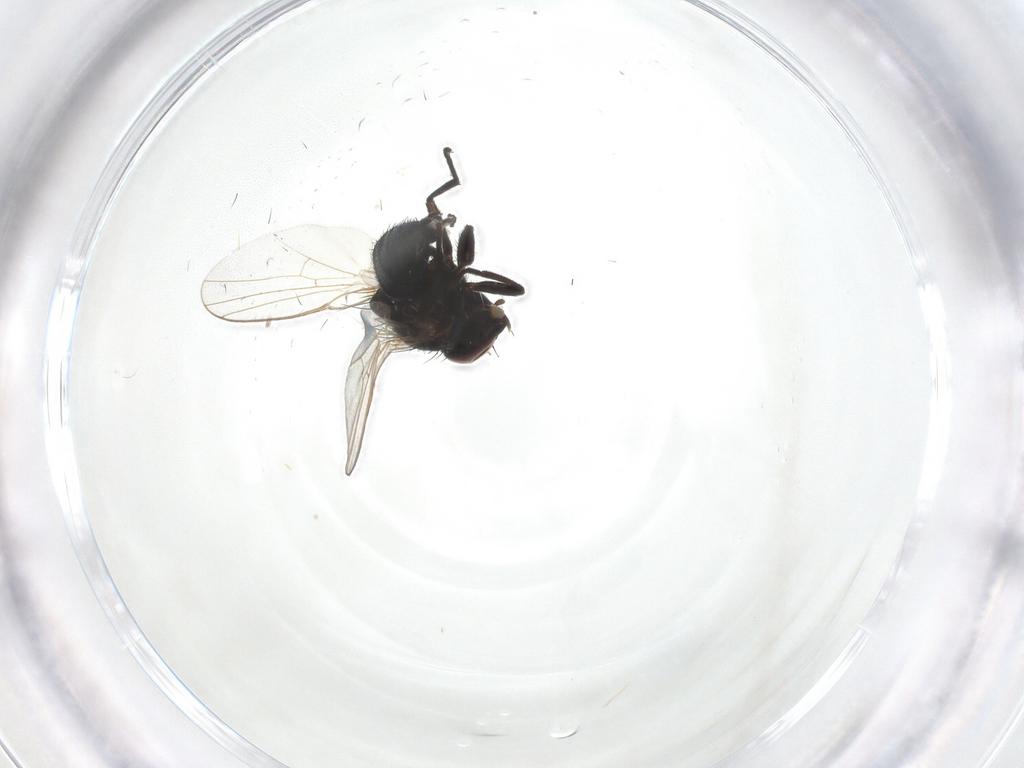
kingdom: Animalia
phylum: Arthropoda
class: Insecta
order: Diptera
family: Agromyzidae
